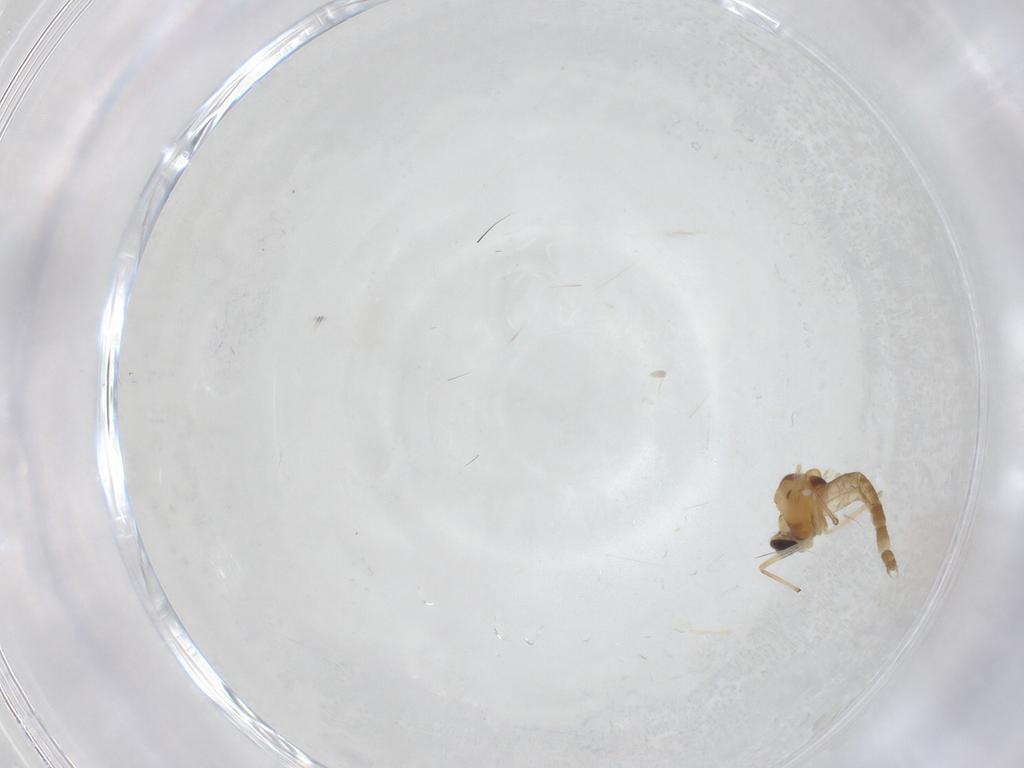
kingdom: Animalia
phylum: Arthropoda
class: Insecta
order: Diptera
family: Chironomidae
